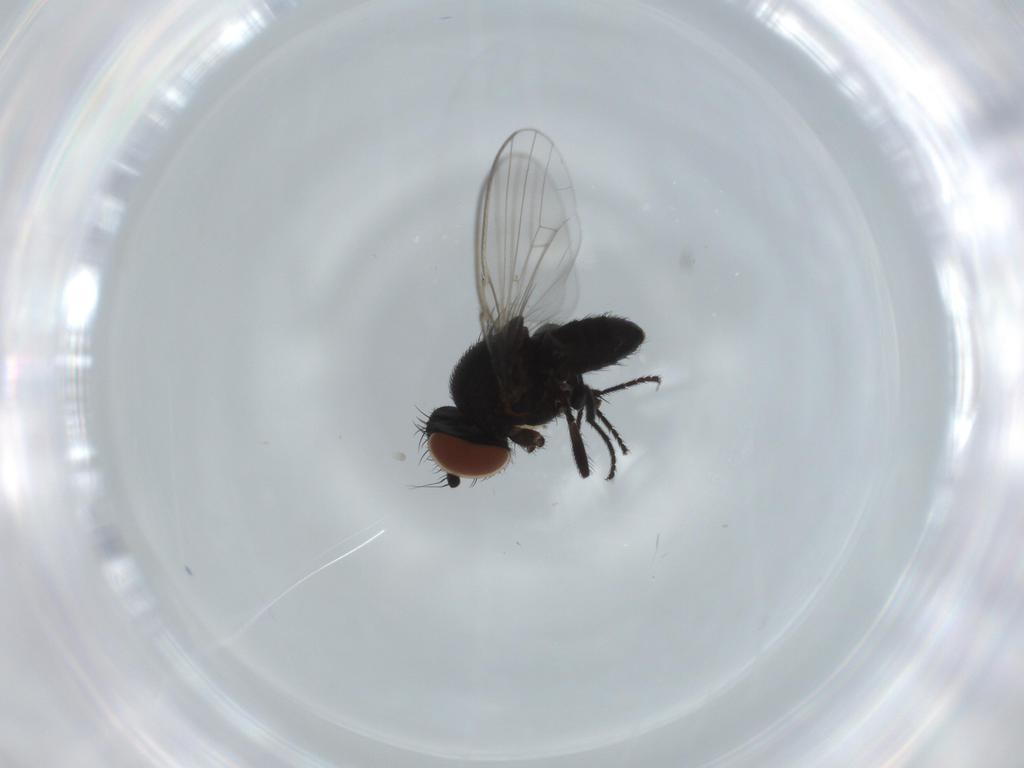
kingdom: Animalia
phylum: Arthropoda
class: Insecta
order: Diptera
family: Milichiidae
